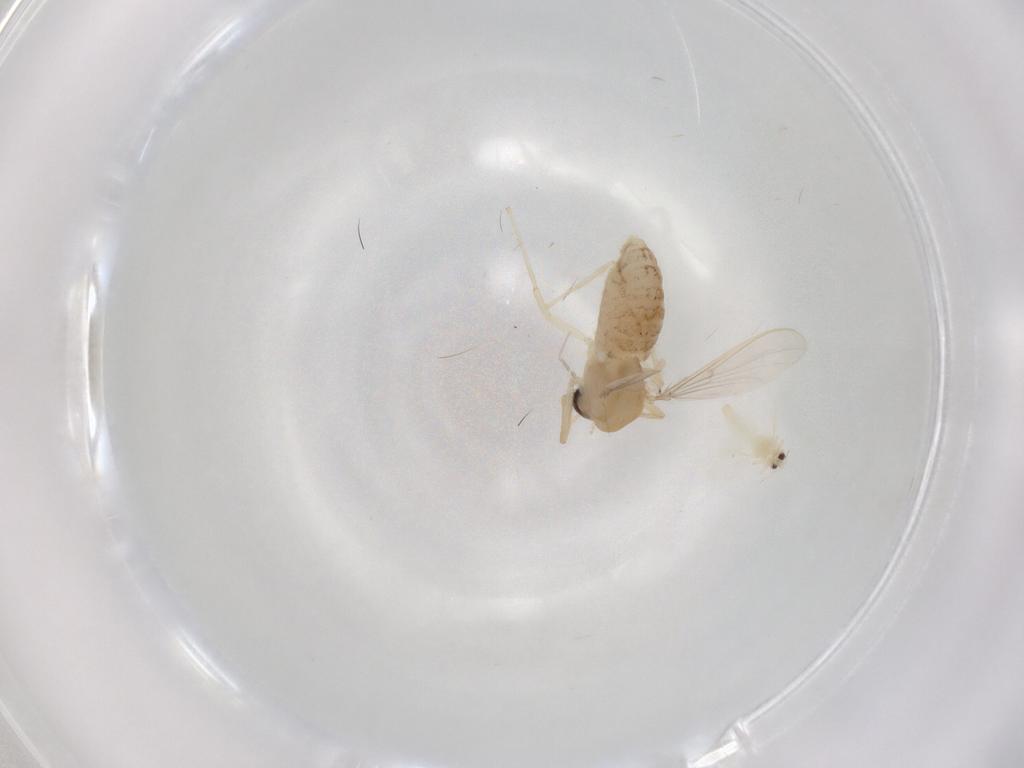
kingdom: Animalia
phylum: Arthropoda
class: Insecta
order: Diptera
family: Chironomidae
